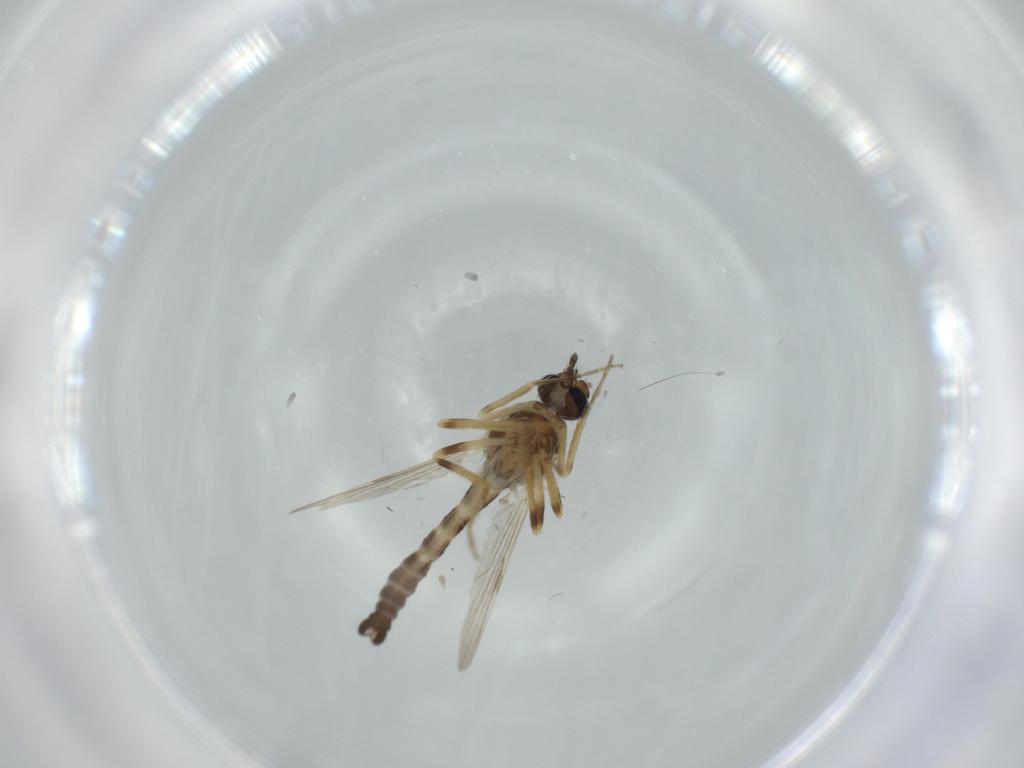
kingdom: Animalia
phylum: Arthropoda
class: Insecta
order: Diptera
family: Ceratopogonidae
